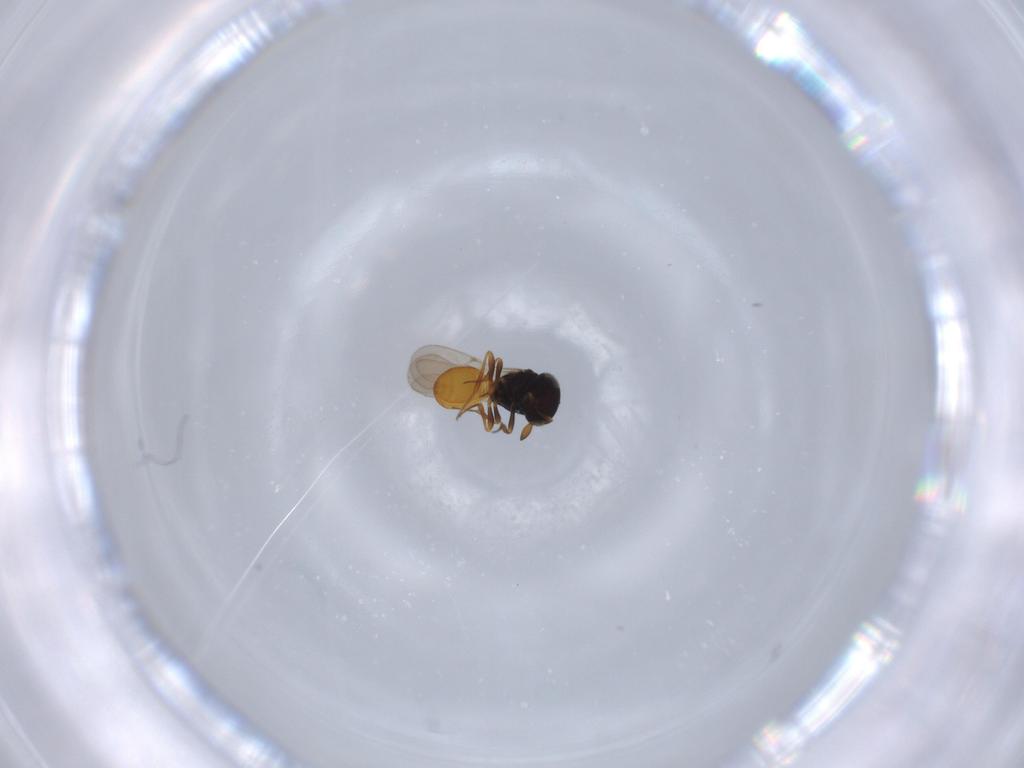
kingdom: Animalia
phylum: Arthropoda
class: Insecta
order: Hymenoptera
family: Scelionidae
